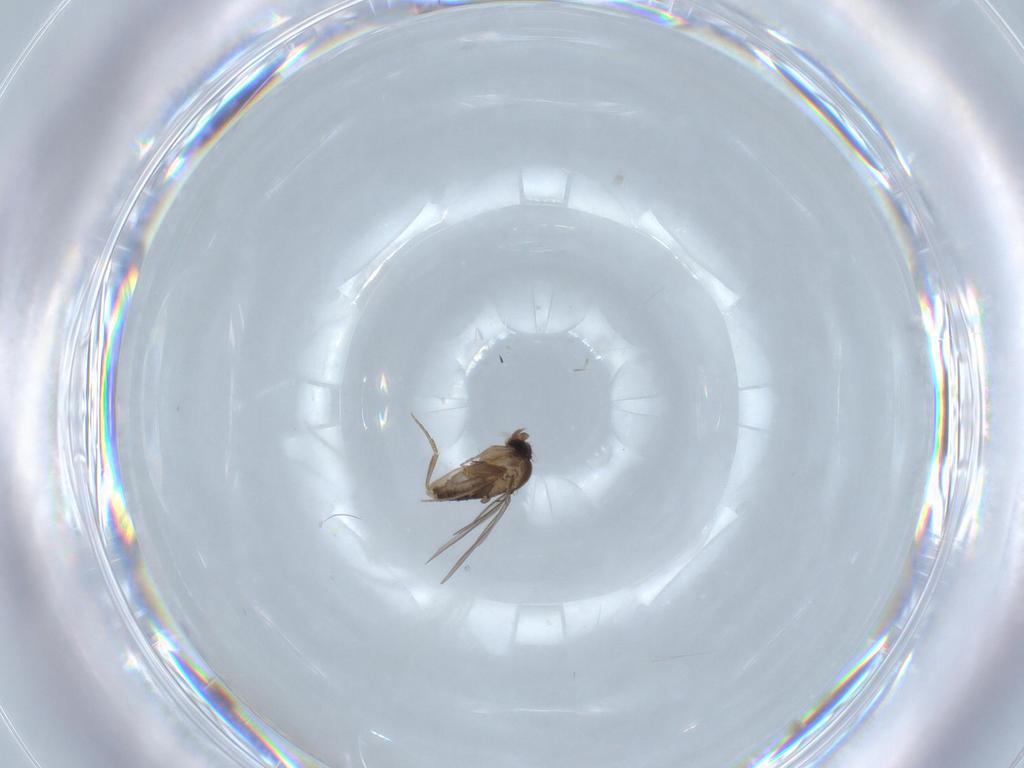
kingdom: Animalia
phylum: Arthropoda
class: Insecta
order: Diptera
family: Phoridae
